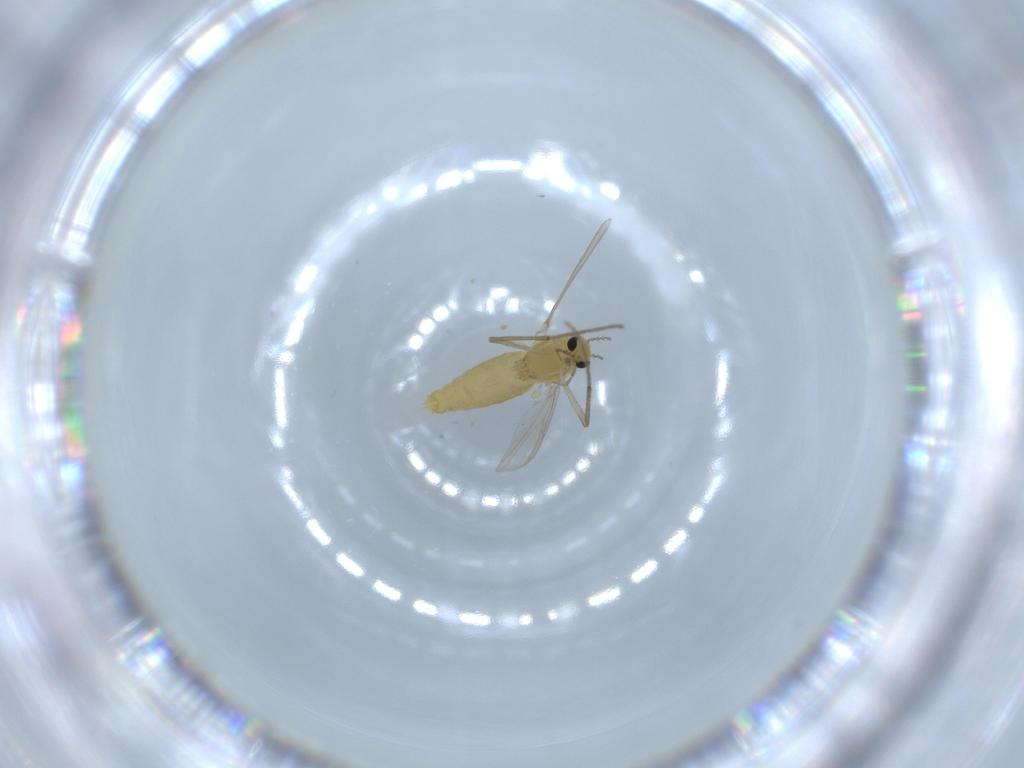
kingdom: Animalia
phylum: Arthropoda
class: Insecta
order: Diptera
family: Chironomidae
